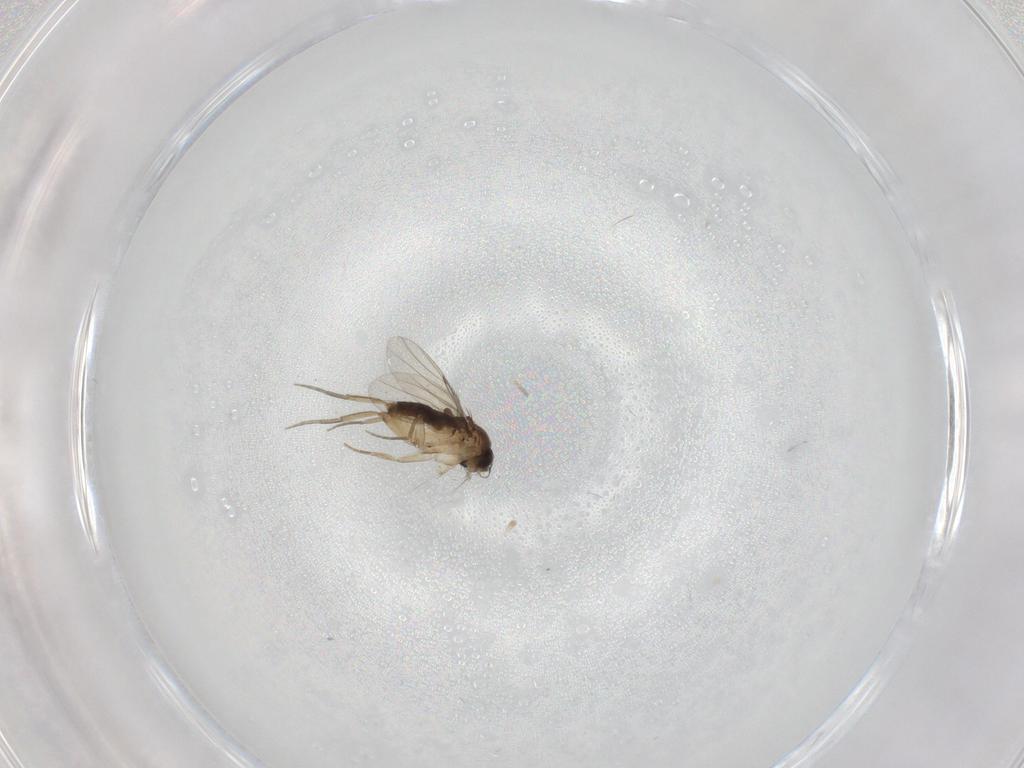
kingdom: Animalia
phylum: Arthropoda
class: Insecta
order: Diptera
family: Phoridae
